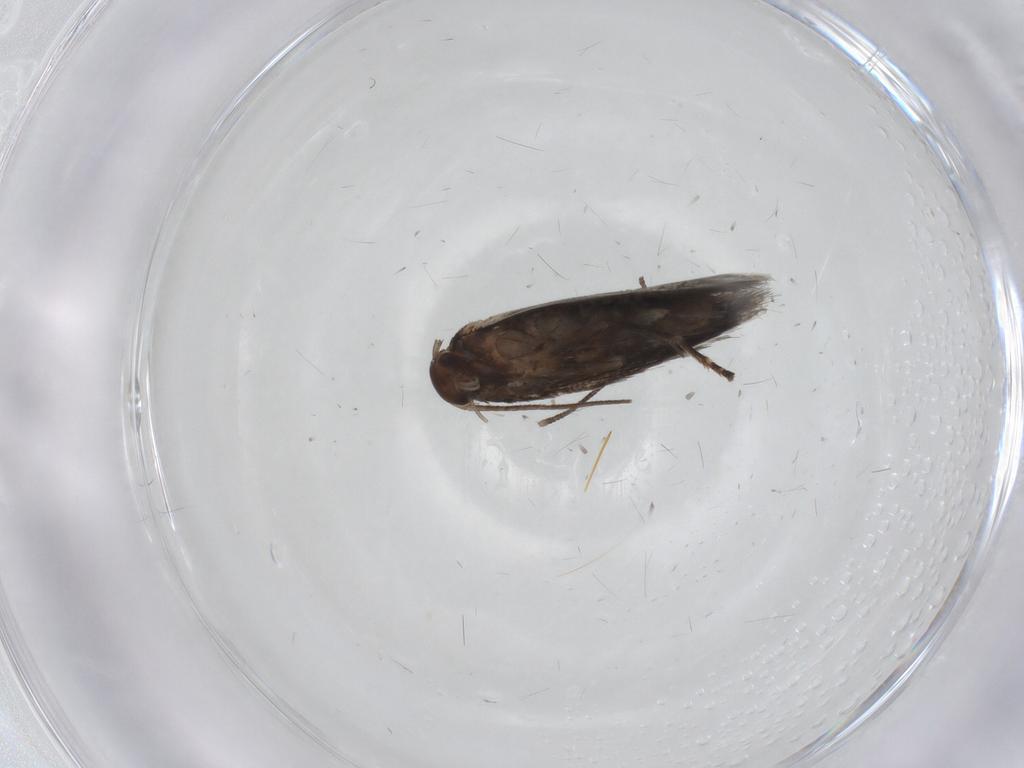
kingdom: Animalia
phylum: Arthropoda
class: Insecta
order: Lepidoptera
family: Elachistidae
